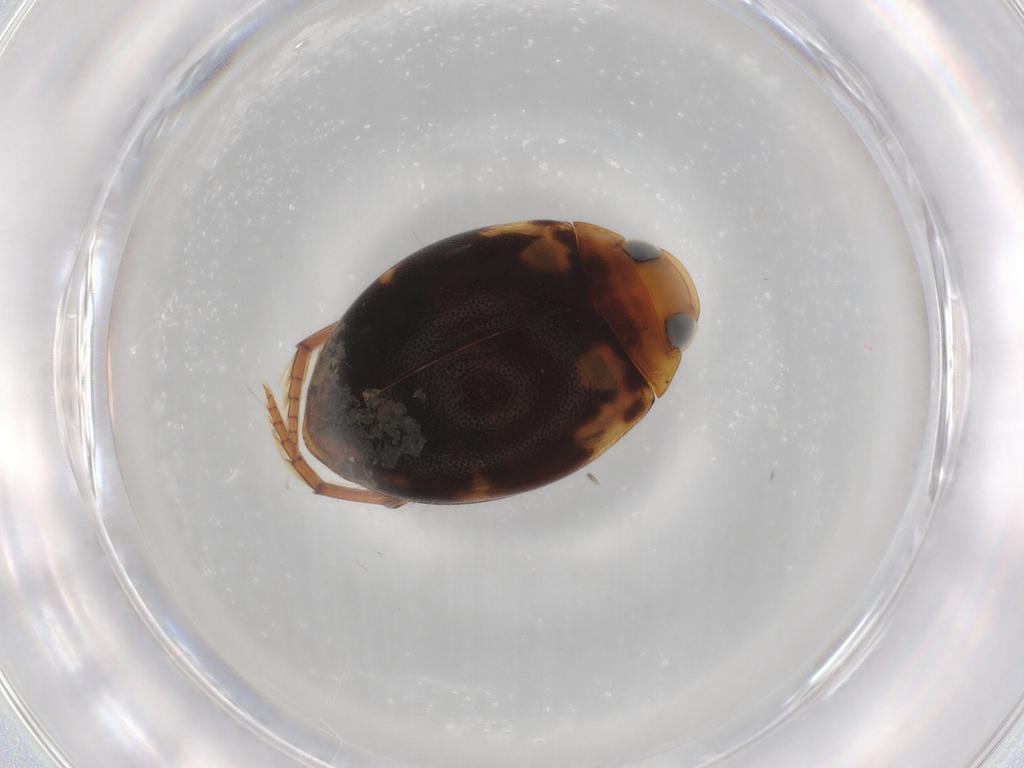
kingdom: Animalia
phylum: Arthropoda
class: Insecta
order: Coleoptera
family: Dytiscidae
